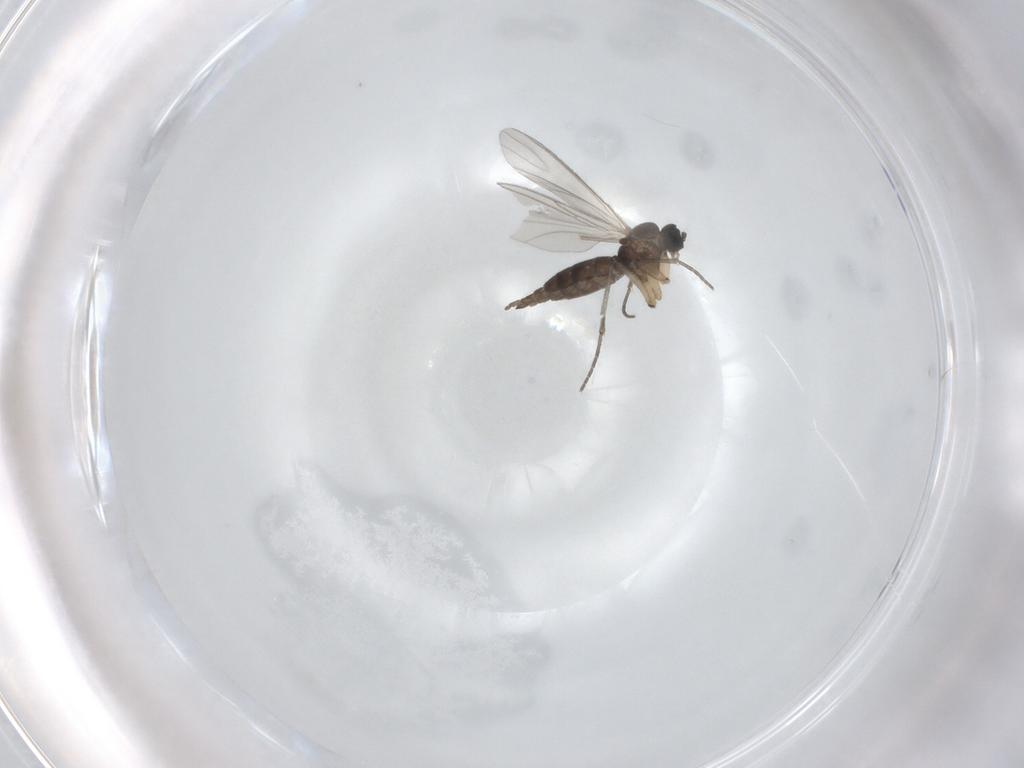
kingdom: Animalia
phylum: Arthropoda
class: Insecta
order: Diptera
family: Sciaridae
